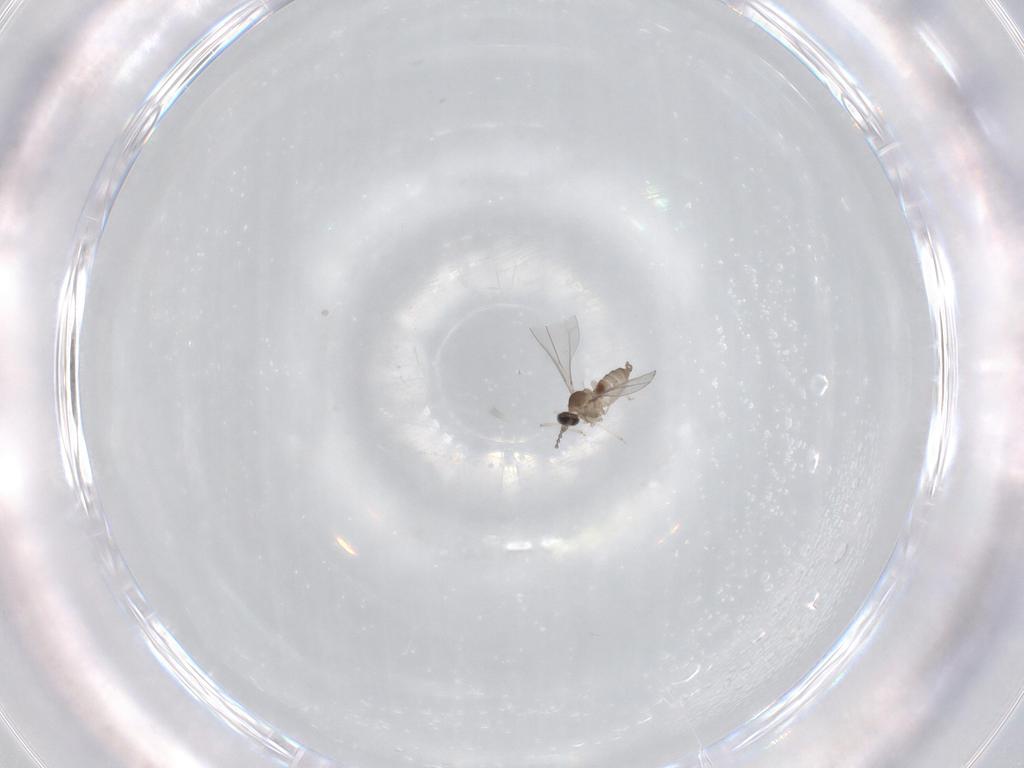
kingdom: Animalia
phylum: Arthropoda
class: Insecta
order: Diptera
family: Cecidomyiidae
